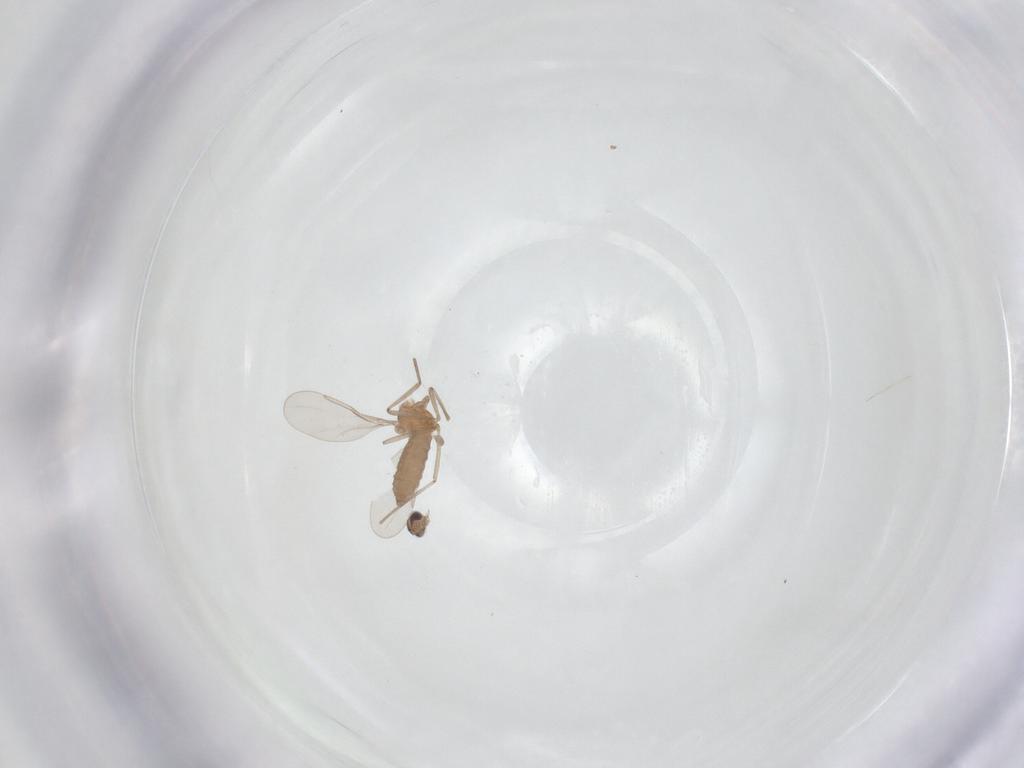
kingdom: Animalia
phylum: Arthropoda
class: Insecta
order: Diptera
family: Cecidomyiidae
